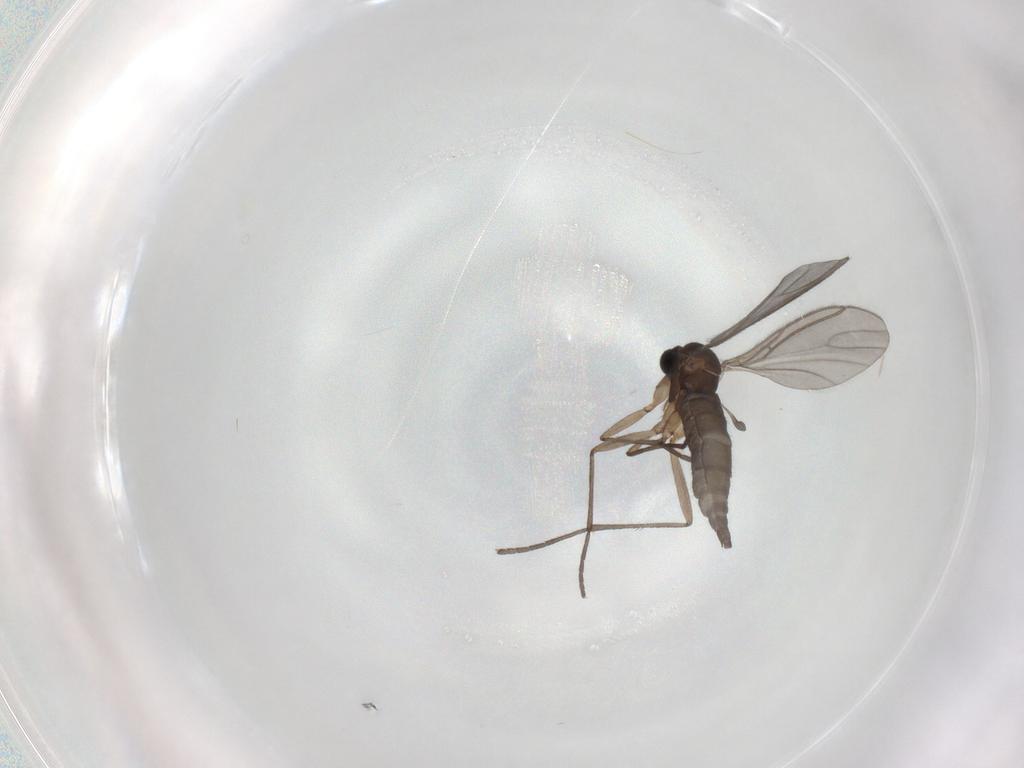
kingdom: Animalia
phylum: Arthropoda
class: Insecta
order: Diptera
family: Sciaridae
